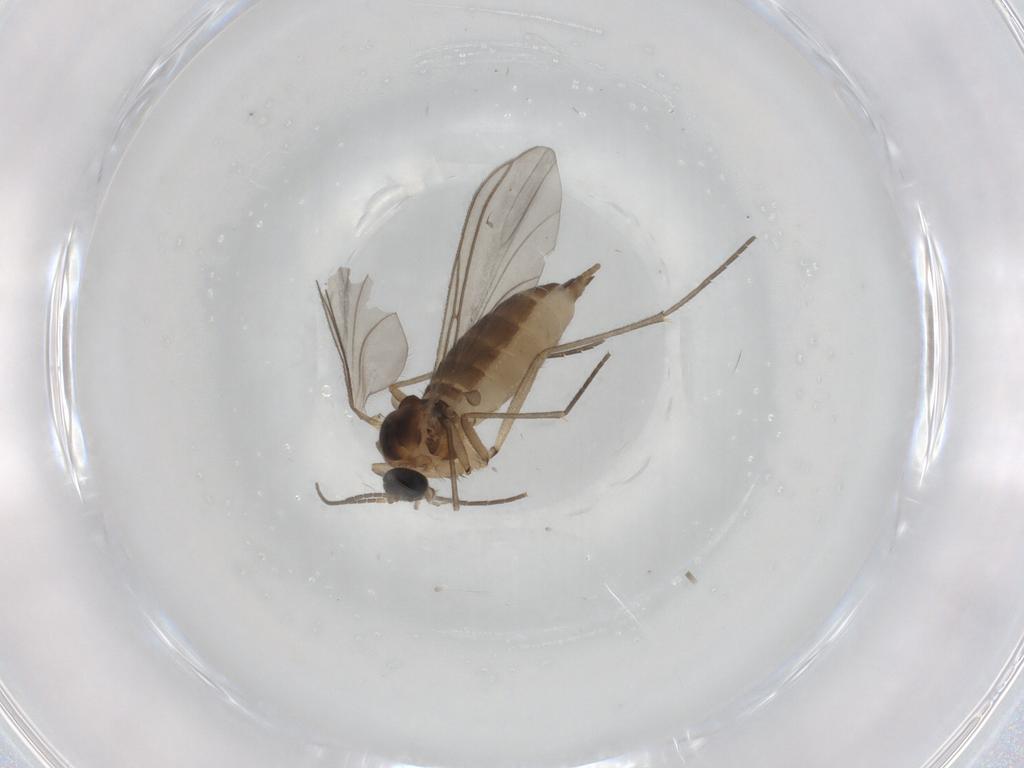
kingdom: Animalia
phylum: Arthropoda
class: Insecta
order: Diptera
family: Sciaridae
